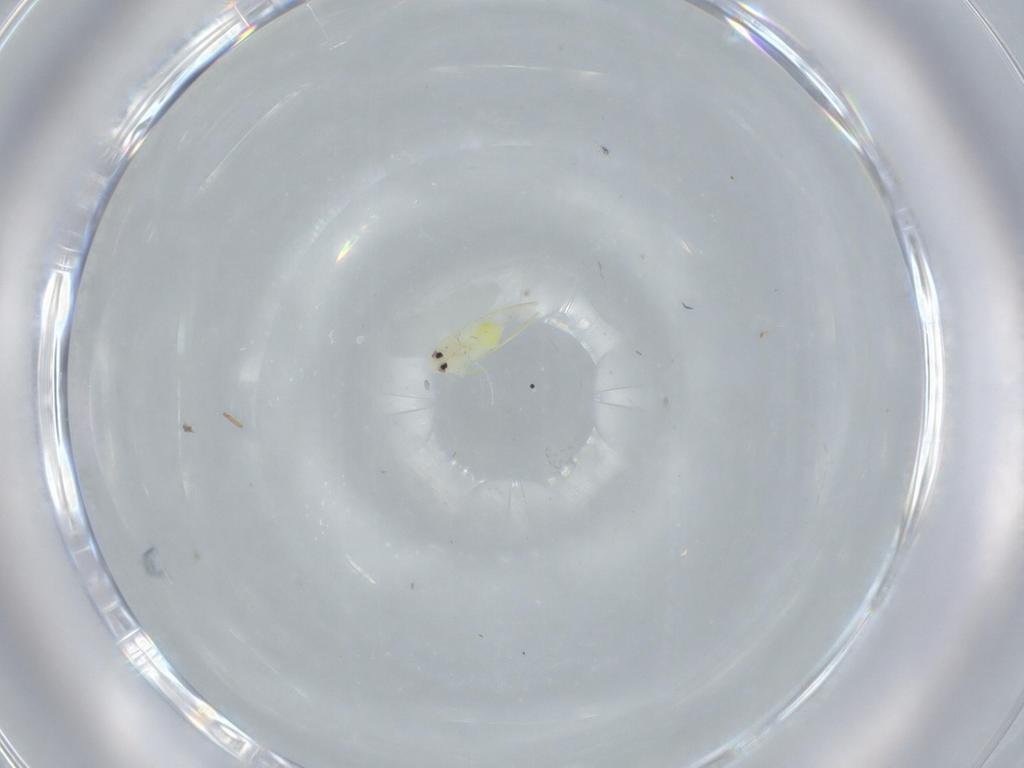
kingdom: Animalia
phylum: Arthropoda
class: Insecta
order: Hemiptera
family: Aleyrodidae
